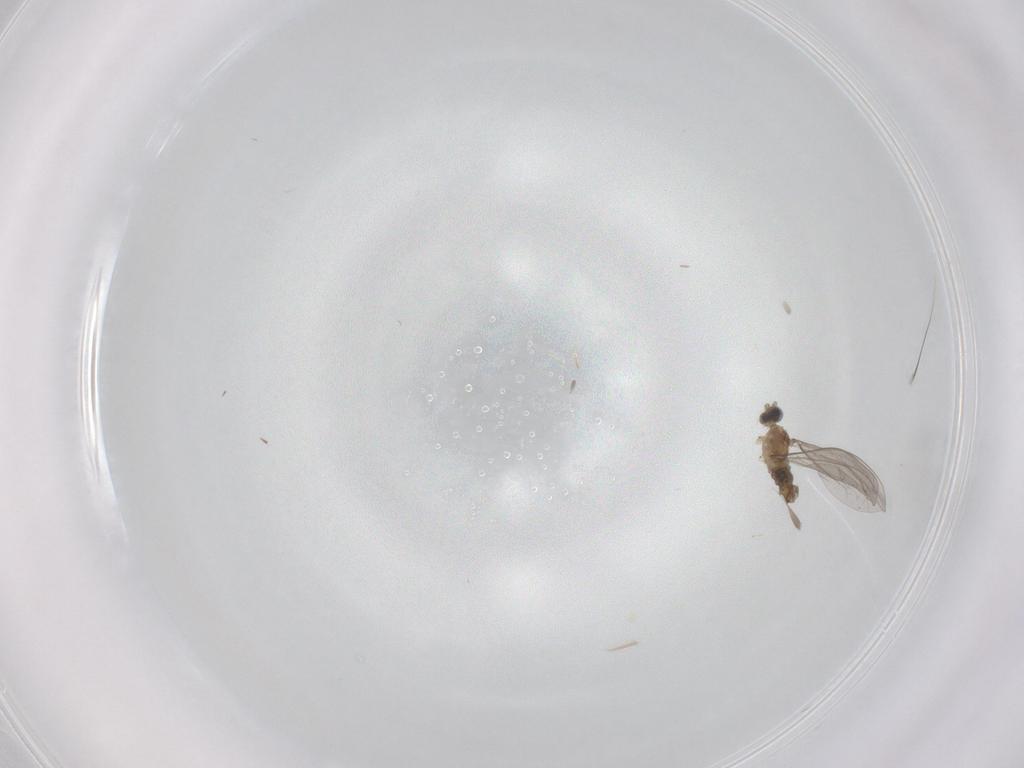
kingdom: Animalia
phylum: Arthropoda
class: Insecta
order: Diptera
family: Cecidomyiidae
